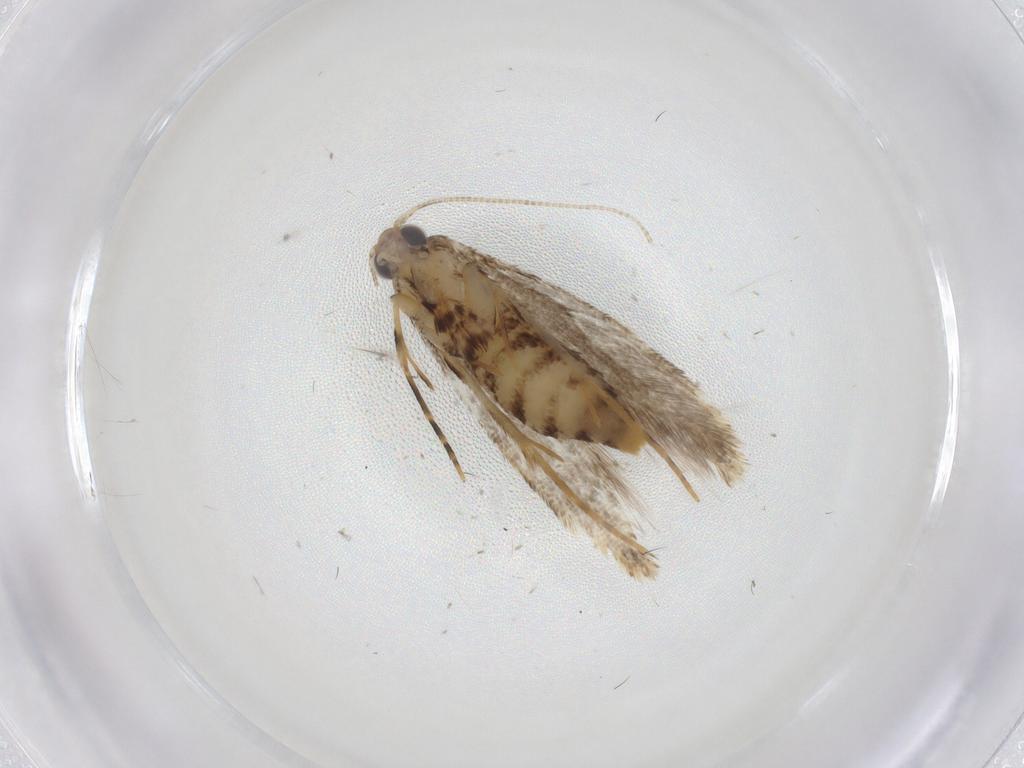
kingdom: Animalia
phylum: Arthropoda
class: Insecta
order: Lepidoptera
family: Tineidae
